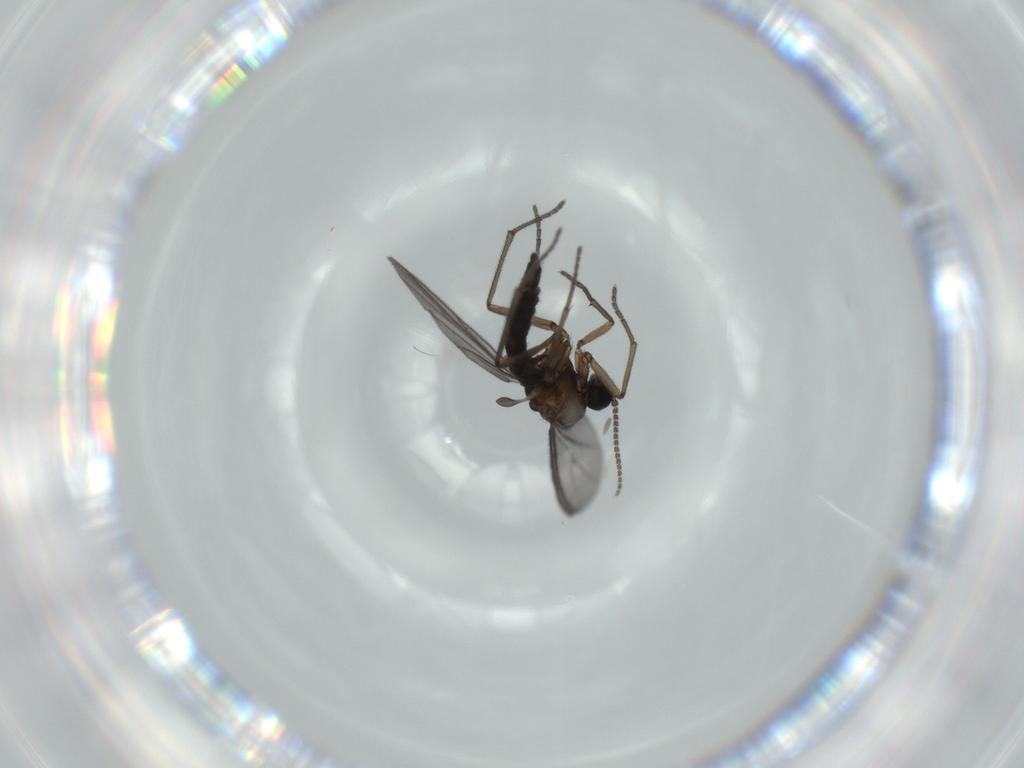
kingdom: Animalia
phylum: Arthropoda
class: Insecta
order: Diptera
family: Sciaridae
